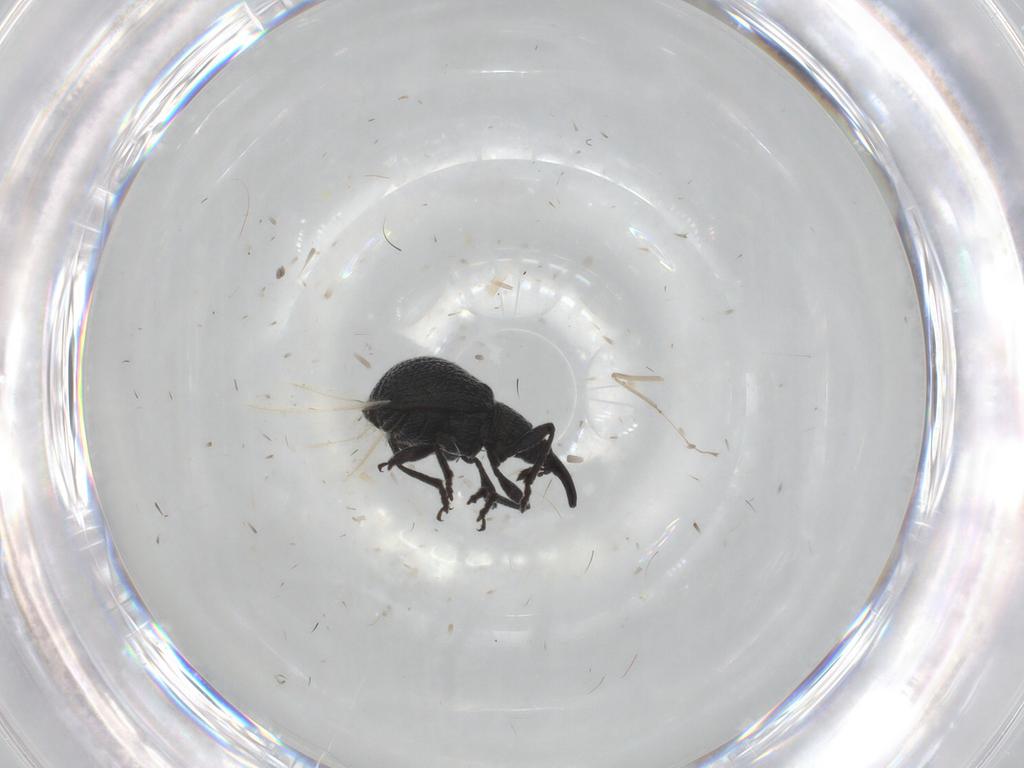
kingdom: Animalia
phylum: Arthropoda
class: Insecta
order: Coleoptera
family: Brentidae
